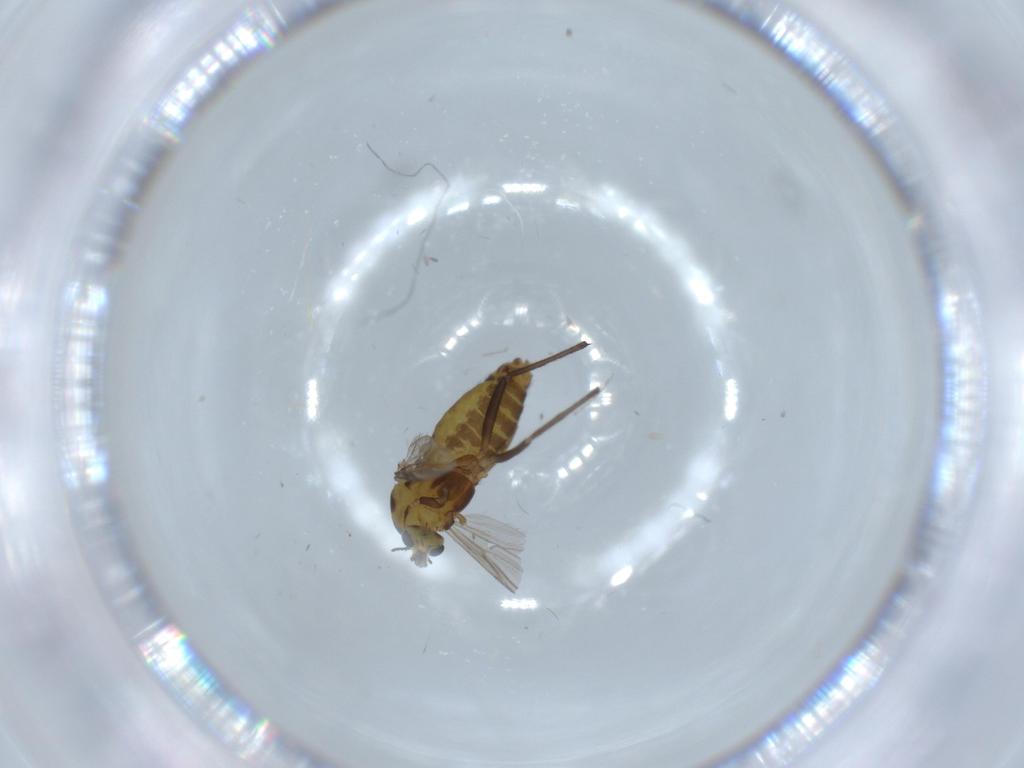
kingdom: Animalia
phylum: Arthropoda
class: Insecta
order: Diptera
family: Chironomidae
